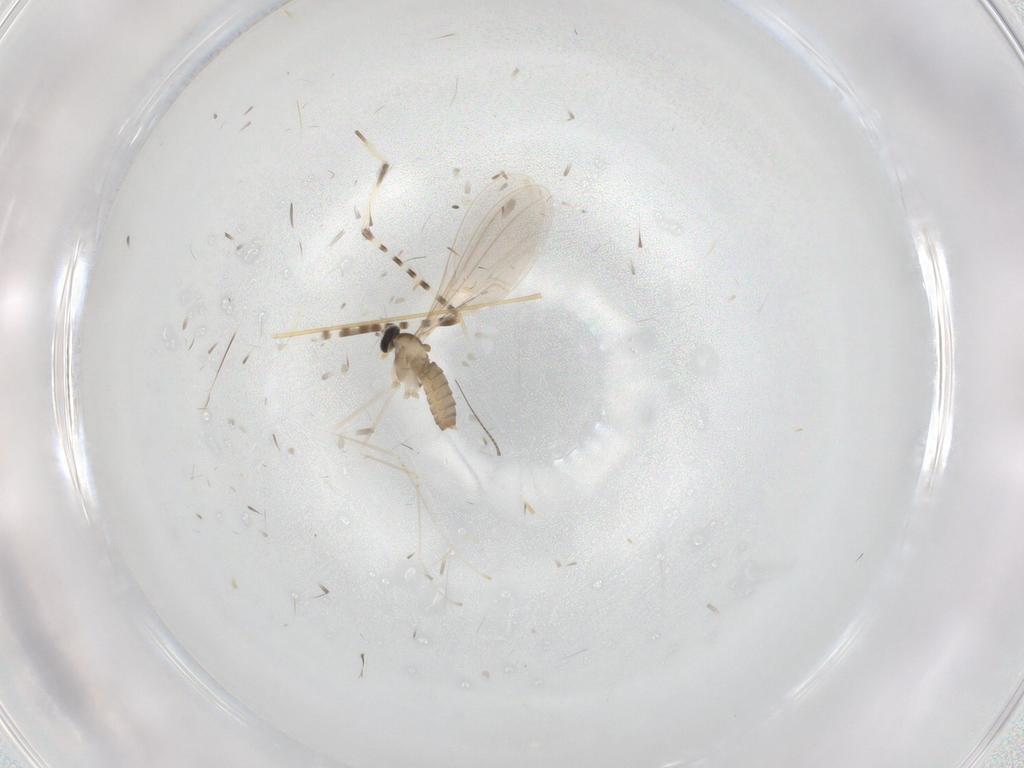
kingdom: Animalia
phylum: Arthropoda
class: Insecta
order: Diptera
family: Cecidomyiidae
